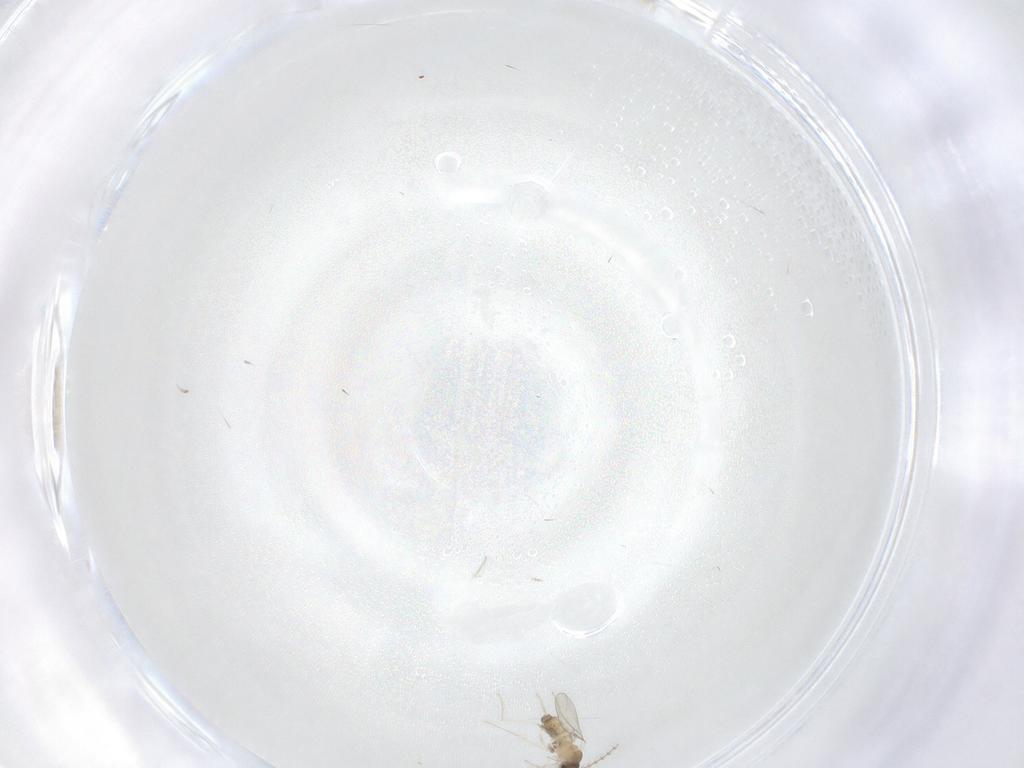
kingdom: Animalia
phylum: Arthropoda
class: Insecta
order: Diptera
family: Cecidomyiidae
